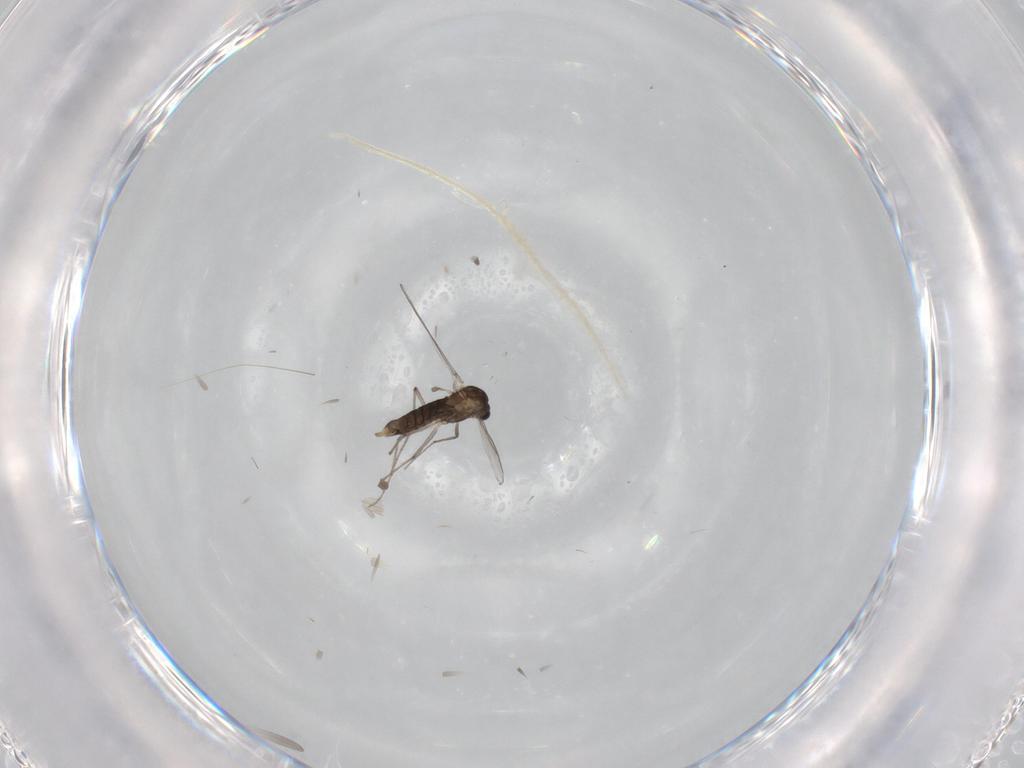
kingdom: Animalia
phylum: Arthropoda
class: Insecta
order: Diptera
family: Chironomidae
